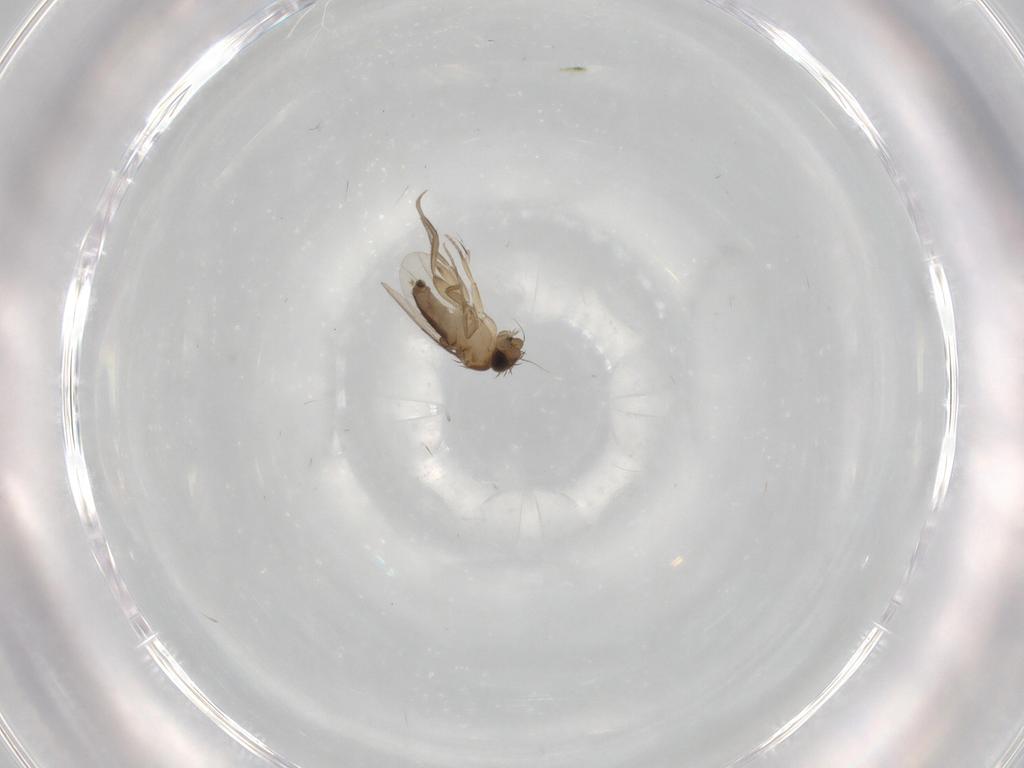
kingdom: Animalia
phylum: Arthropoda
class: Insecta
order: Diptera
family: Phoridae
